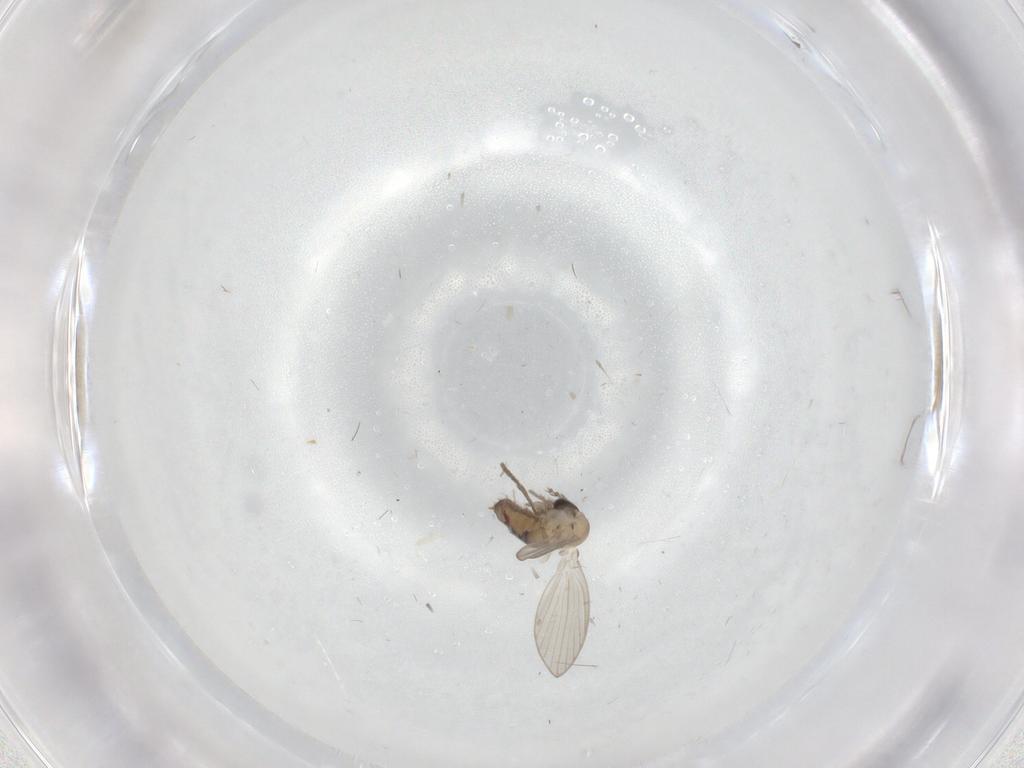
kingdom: Animalia
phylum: Arthropoda
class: Insecta
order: Diptera
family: Psychodidae
